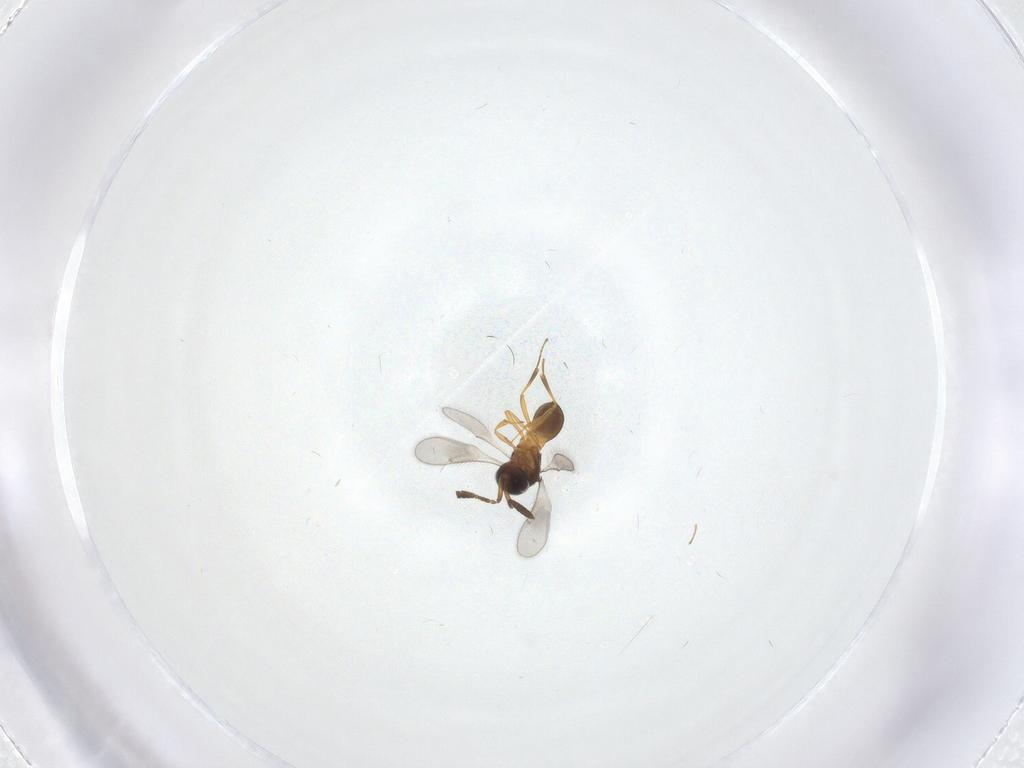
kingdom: Animalia
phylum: Arthropoda
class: Insecta
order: Hymenoptera
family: Scelionidae
